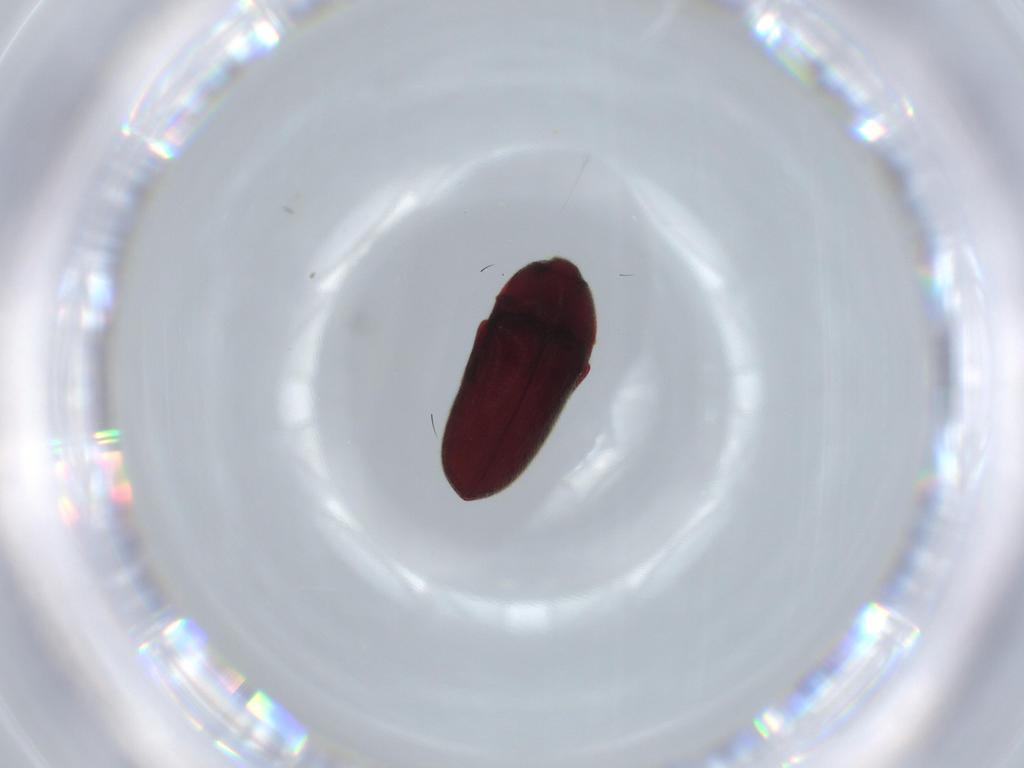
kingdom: Animalia
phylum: Arthropoda
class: Insecta
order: Coleoptera
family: Throscidae
